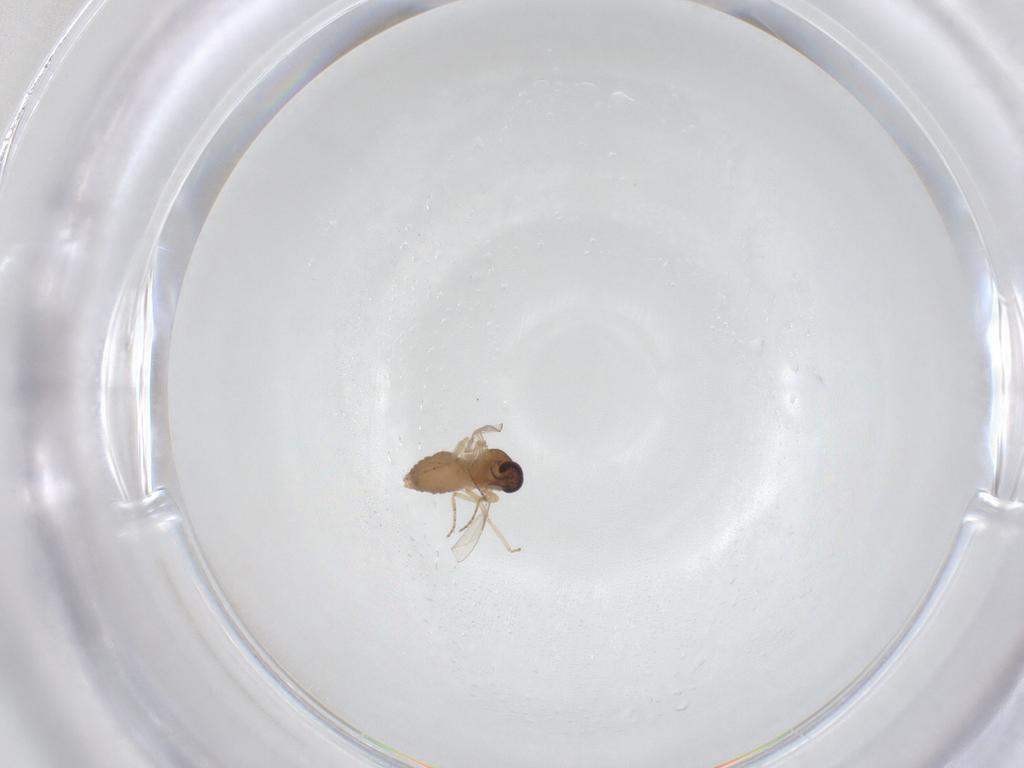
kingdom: Animalia
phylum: Arthropoda
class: Insecta
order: Diptera
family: Ceratopogonidae
